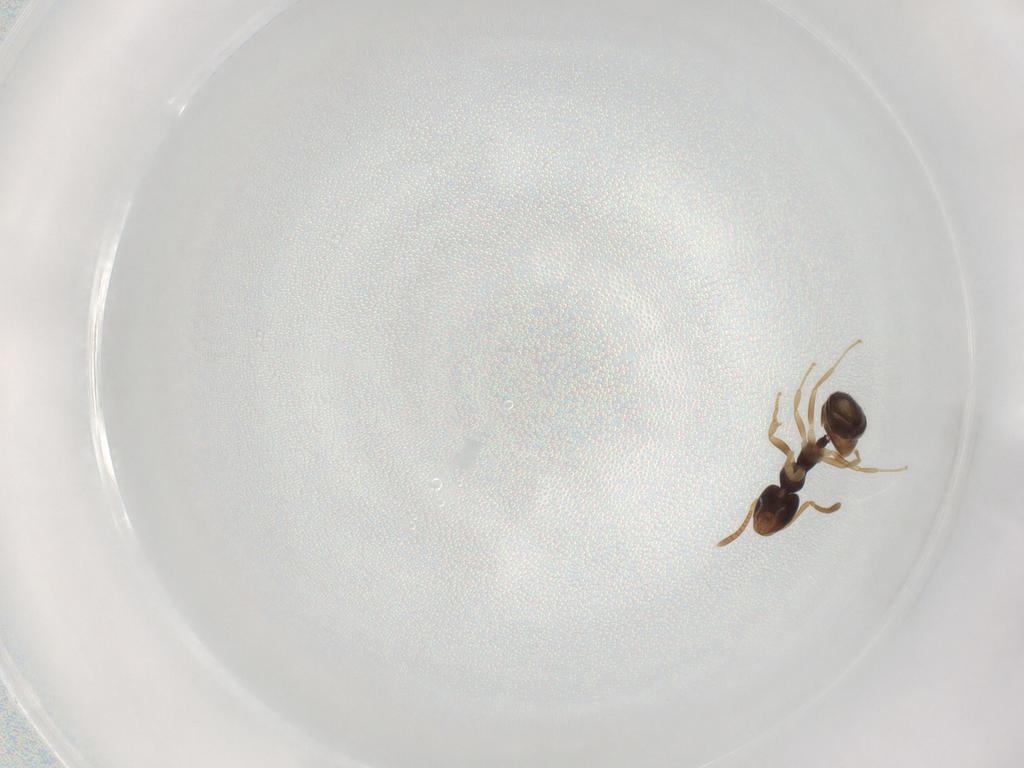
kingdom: Animalia
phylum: Arthropoda
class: Insecta
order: Hymenoptera
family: Formicidae
